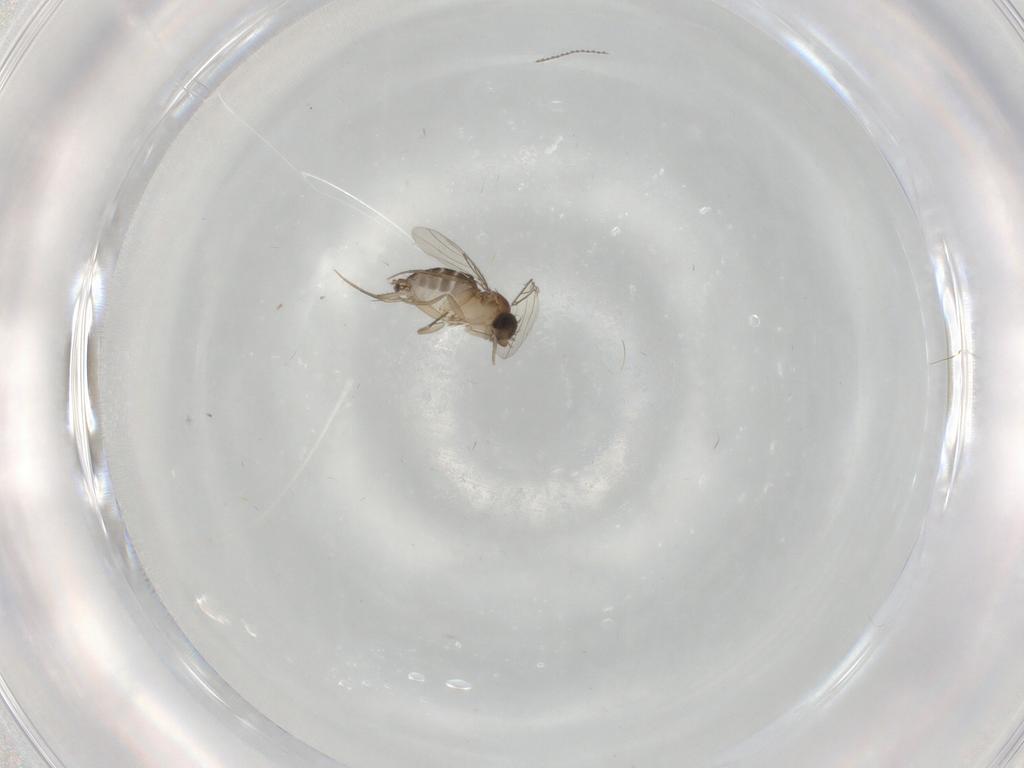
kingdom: Animalia
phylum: Arthropoda
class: Insecta
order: Diptera
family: Phoridae
